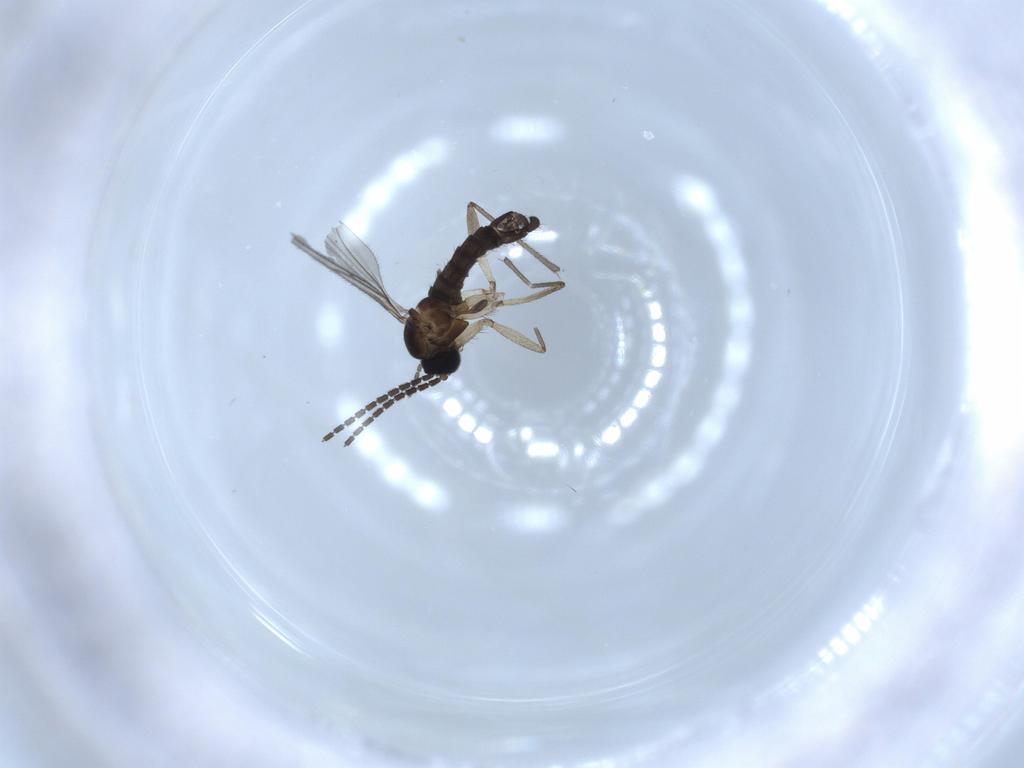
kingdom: Animalia
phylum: Arthropoda
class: Insecta
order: Diptera
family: Sciaridae
